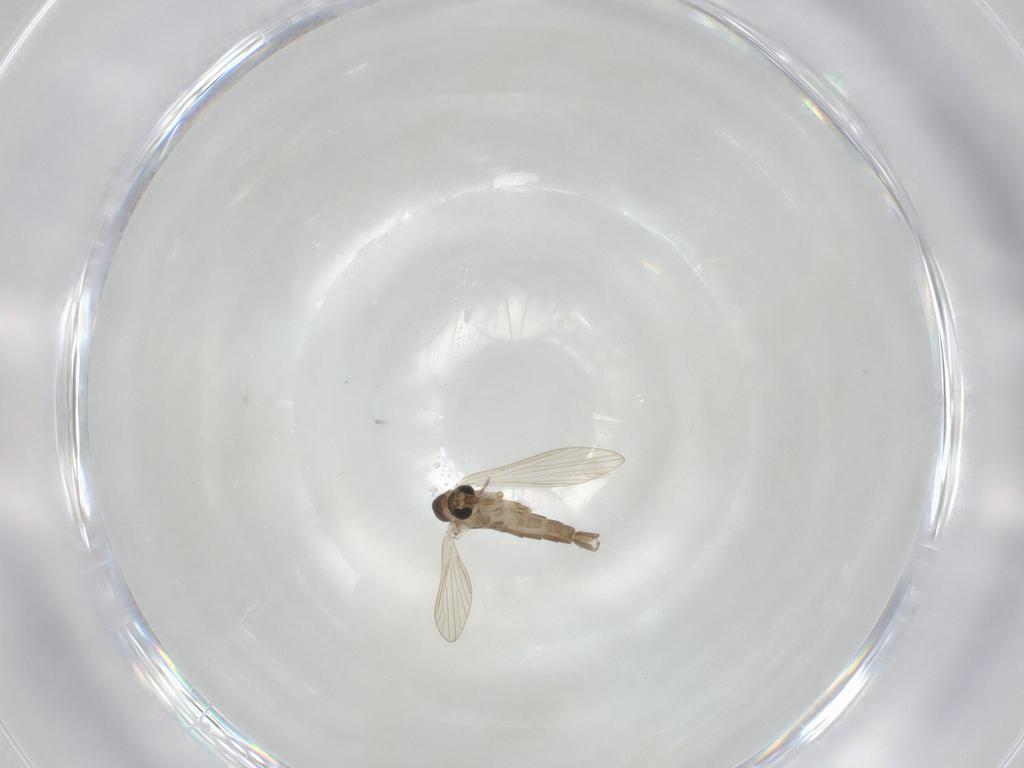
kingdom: Animalia
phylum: Arthropoda
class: Insecta
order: Diptera
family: Psychodidae
